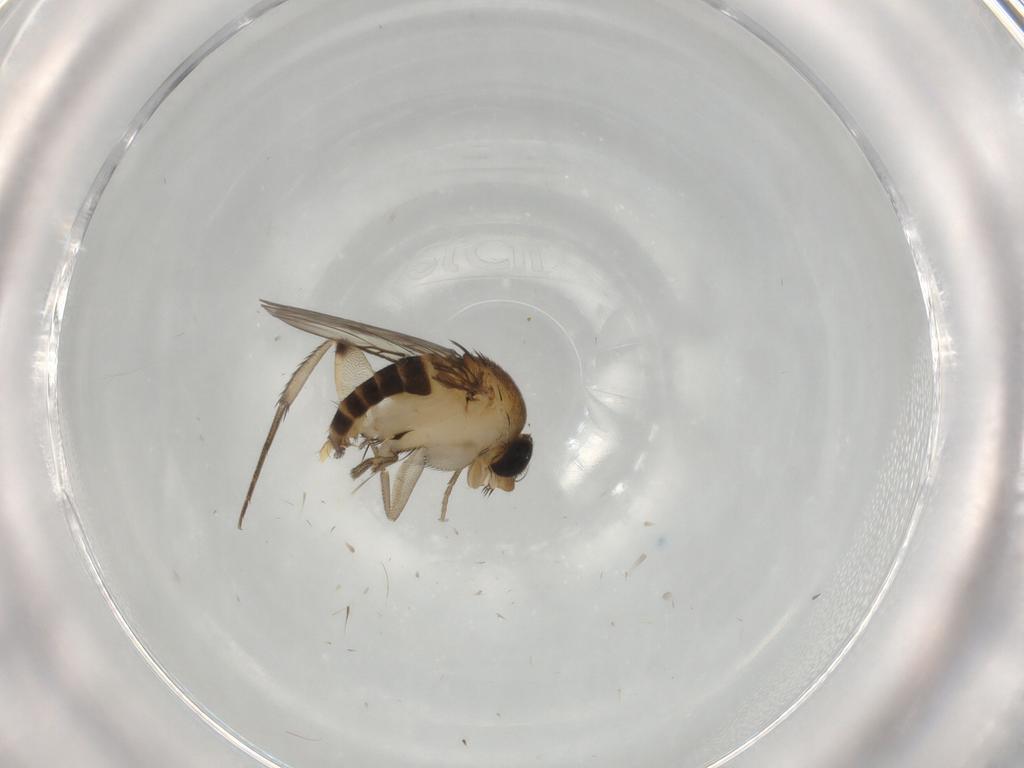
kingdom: Animalia
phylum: Arthropoda
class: Insecta
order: Diptera
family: Phoridae
